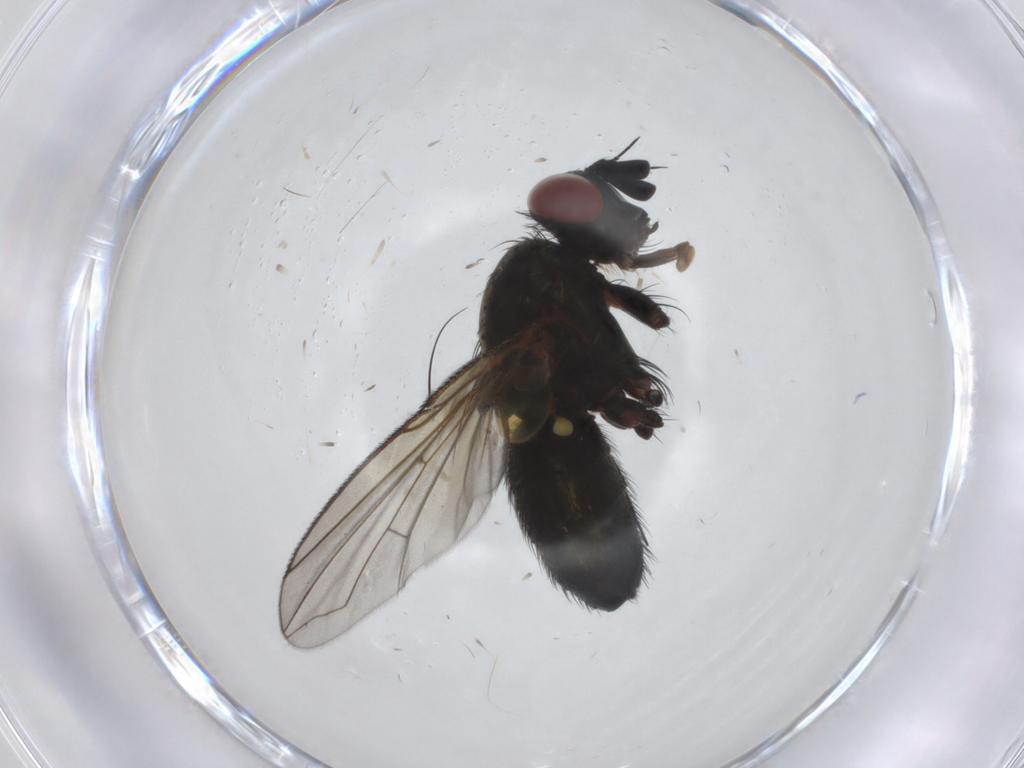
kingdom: Animalia
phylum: Arthropoda
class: Insecta
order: Diptera
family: Tachinidae
